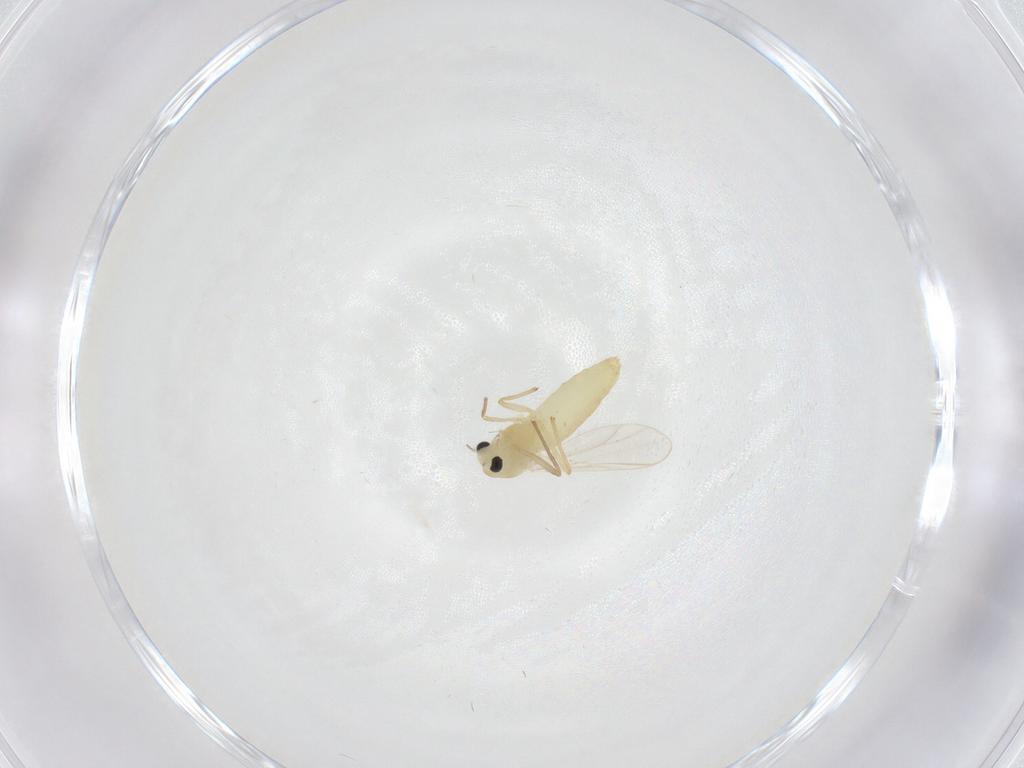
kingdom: Animalia
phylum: Arthropoda
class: Insecta
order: Diptera
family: Chironomidae
